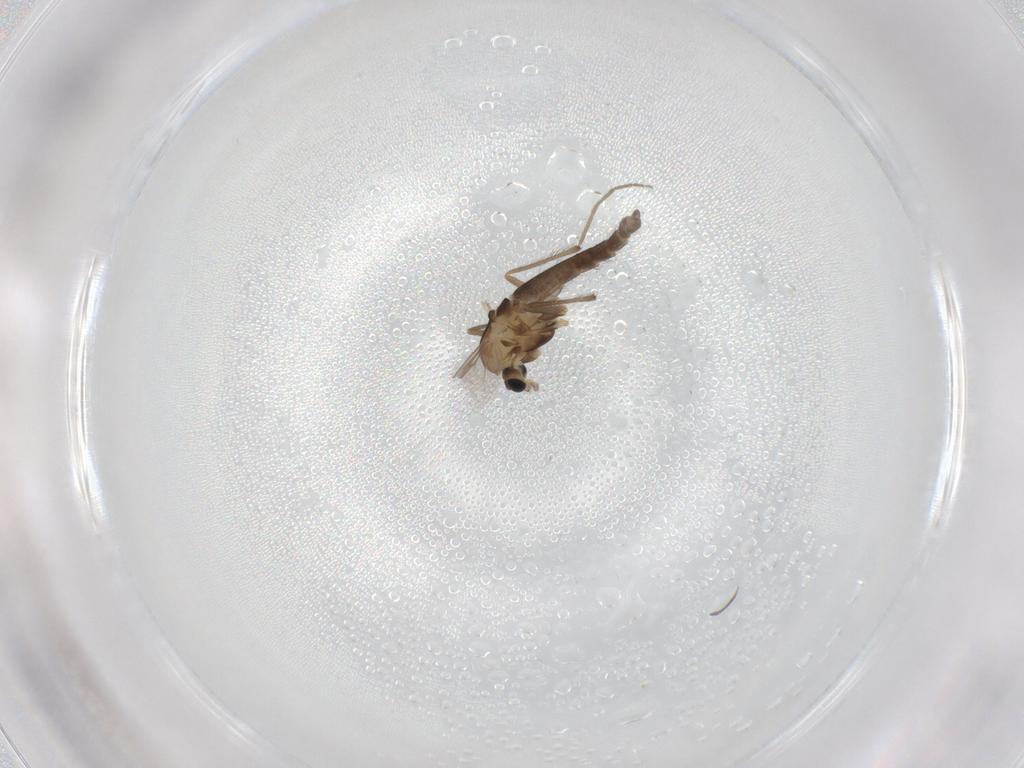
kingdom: Animalia
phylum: Arthropoda
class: Insecta
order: Diptera
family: Chironomidae
